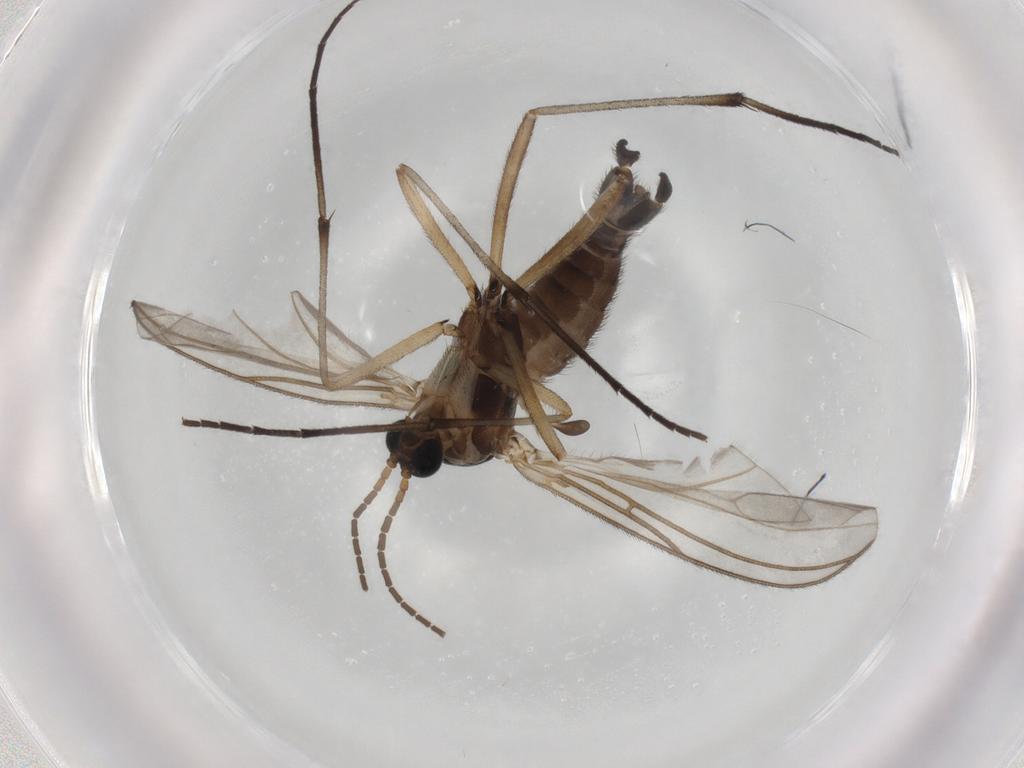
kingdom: Animalia
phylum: Arthropoda
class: Insecta
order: Diptera
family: Sciaridae
